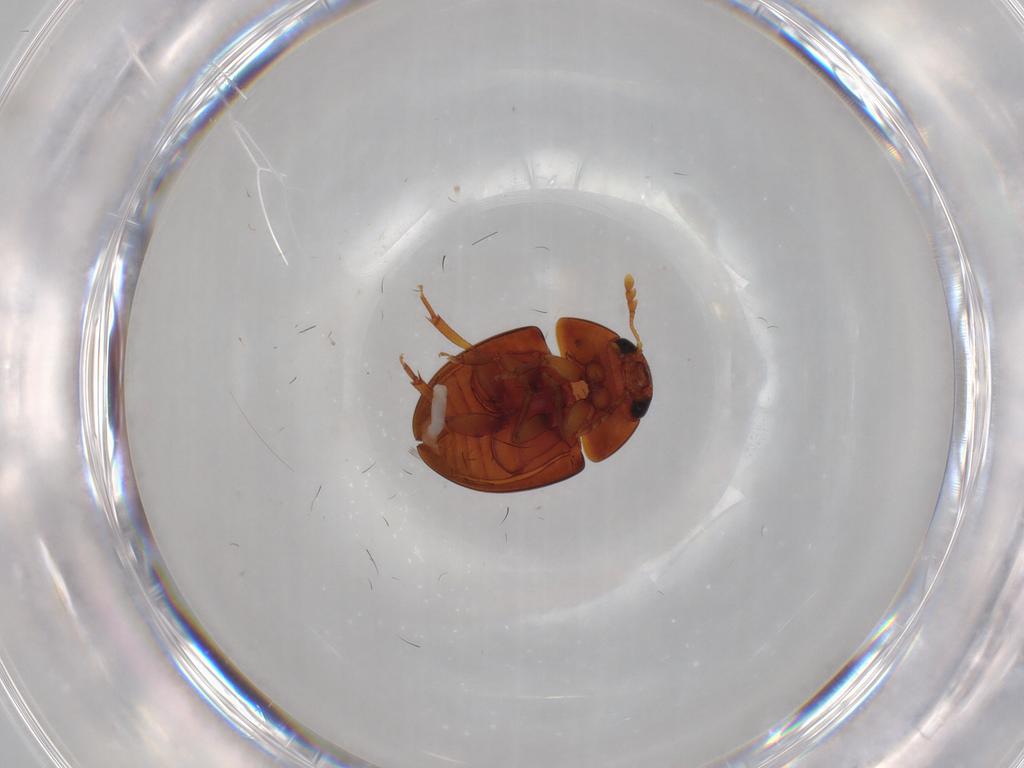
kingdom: Animalia
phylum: Arthropoda
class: Insecta
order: Coleoptera
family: Phalacridae
